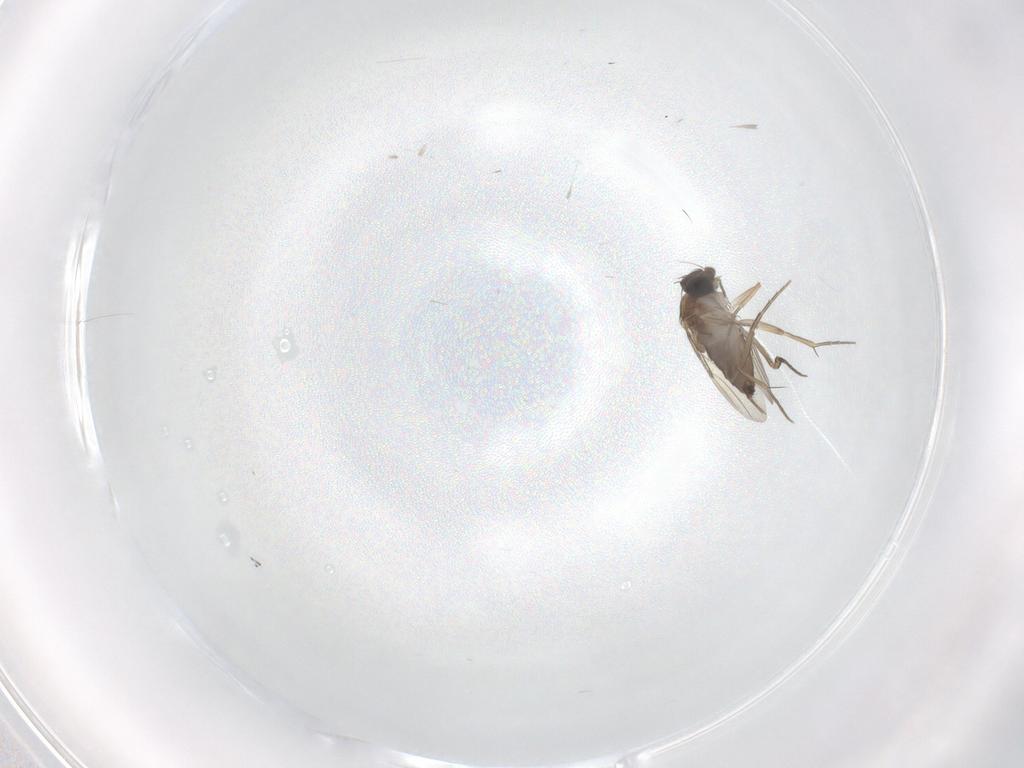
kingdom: Animalia
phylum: Arthropoda
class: Insecta
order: Diptera
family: Phoridae
